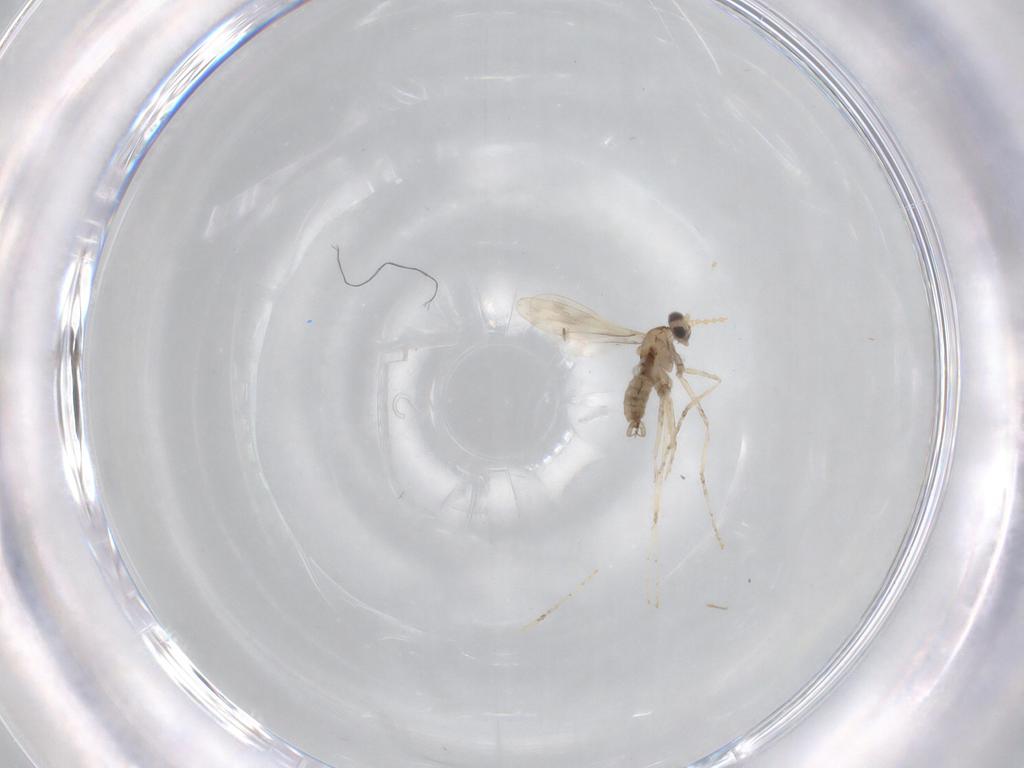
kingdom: Animalia
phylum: Arthropoda
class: Insecta
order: Diptera
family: Cecidomyiidae
